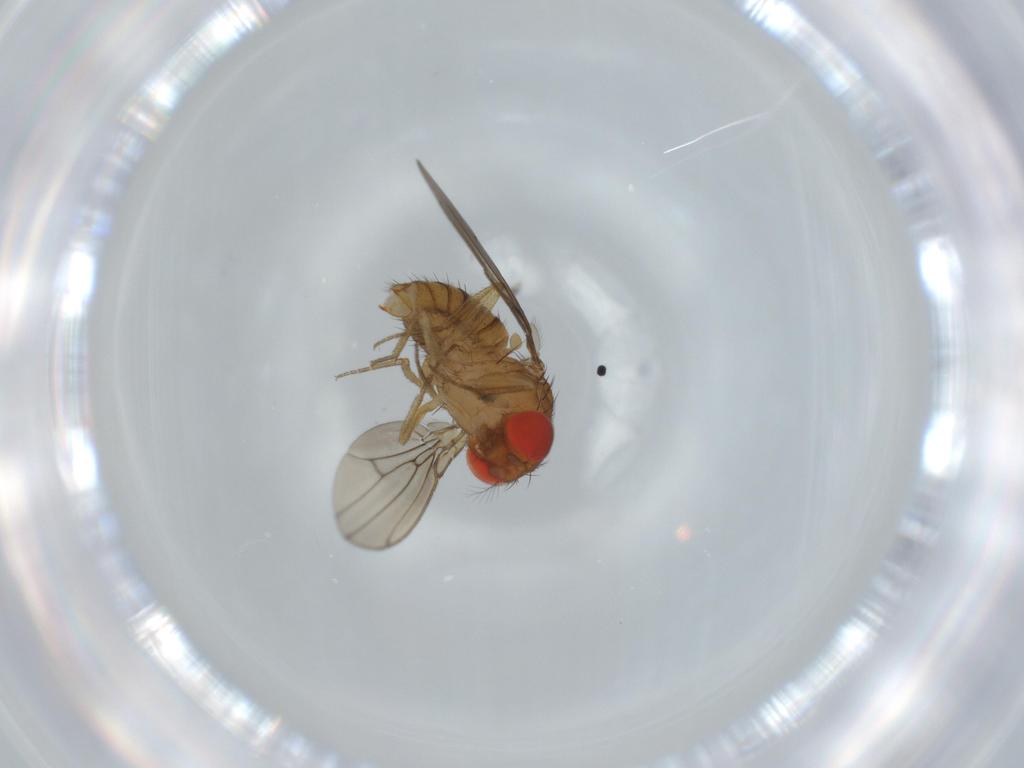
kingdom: Animalia
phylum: Arthropoda
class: Insecta
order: Diptera
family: Drosophilidae
